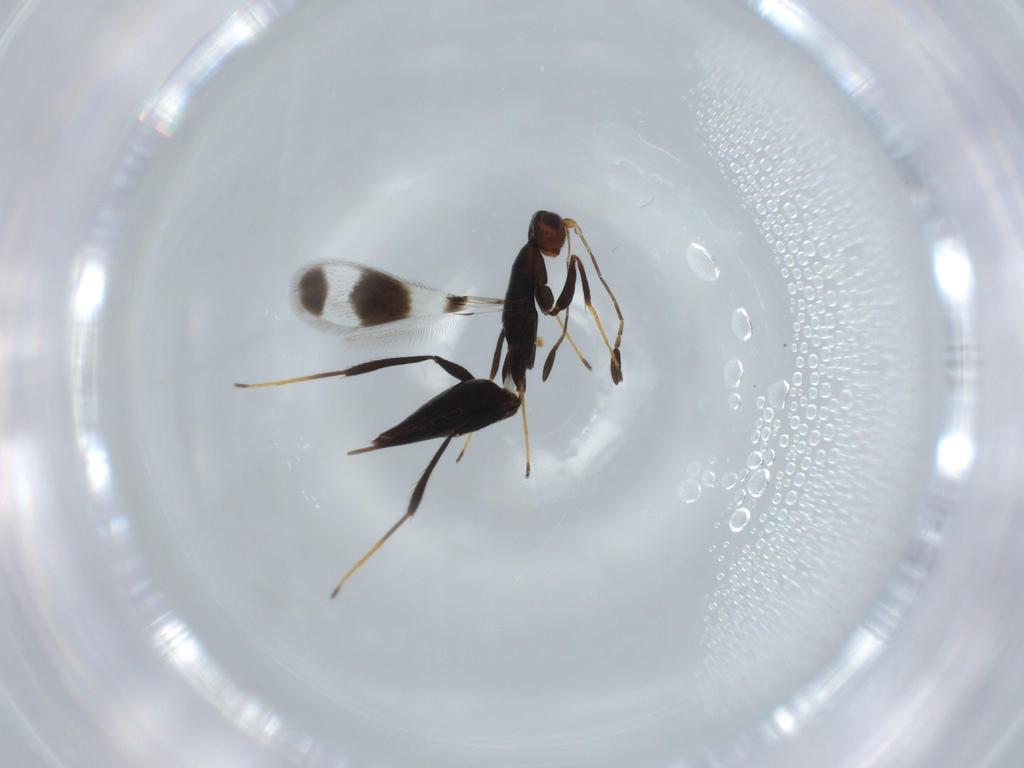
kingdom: Animalia
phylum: Arthropoda
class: Insecta
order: Hymenoptera
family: Mymaridae
